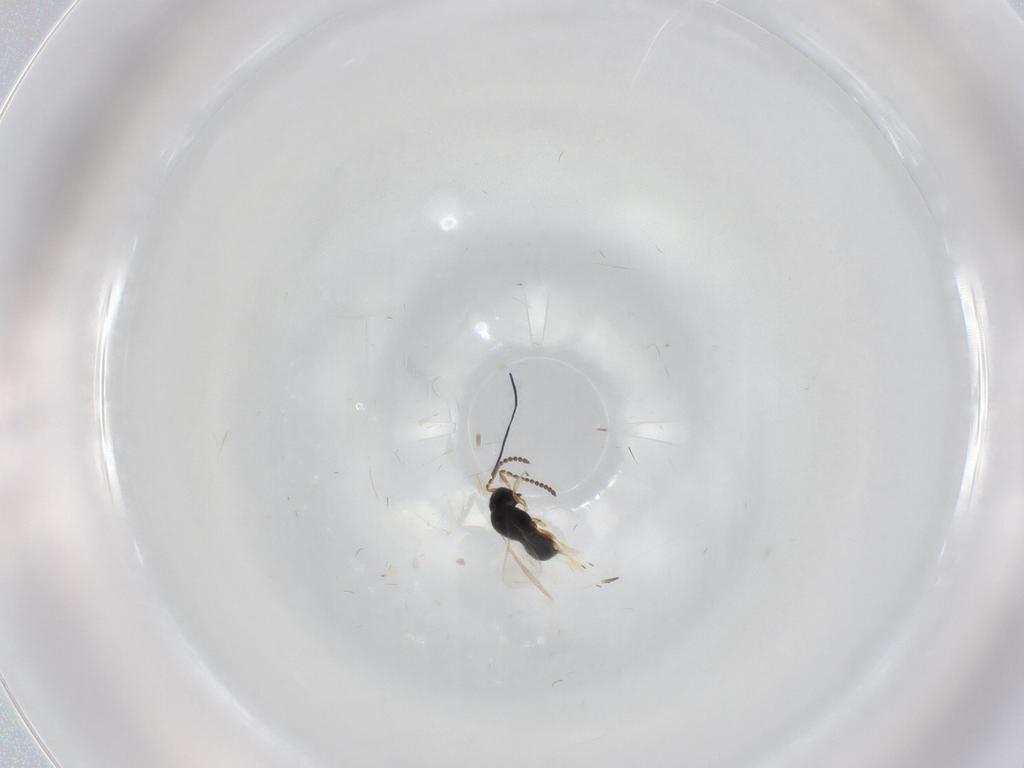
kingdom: Animalia
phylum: Arthropoda
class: Insecta
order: Hymenoptera
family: Scelionidae
